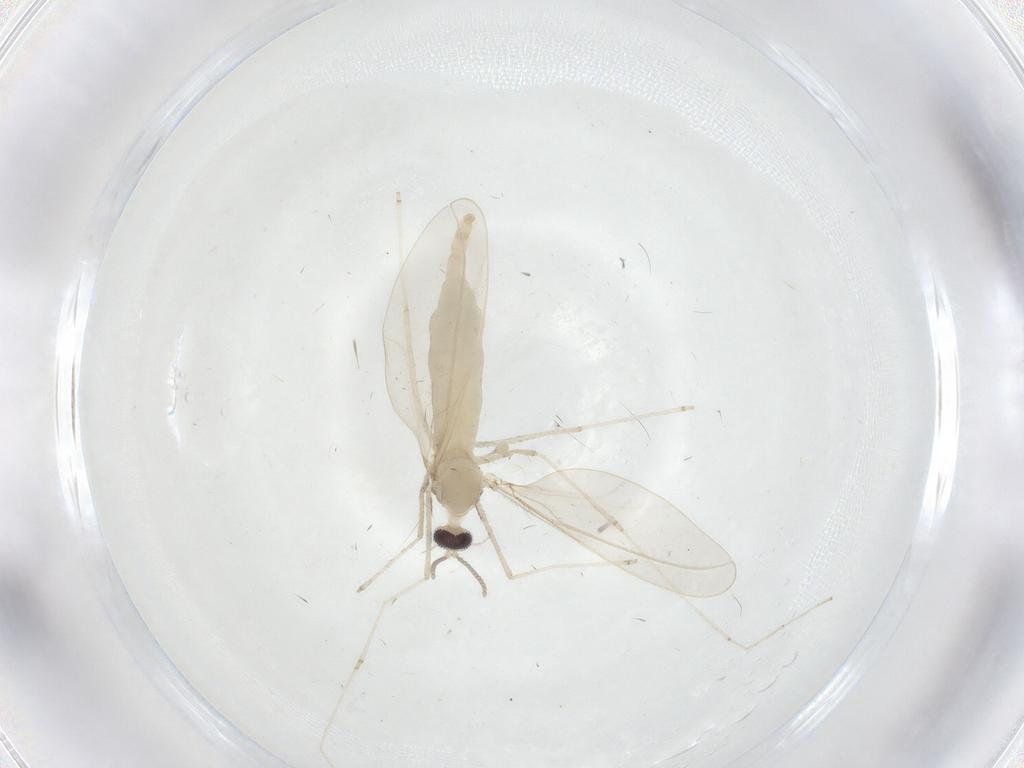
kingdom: Animalia
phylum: Arthropoda
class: Insecta
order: Diptera
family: Cecidomyiidae
